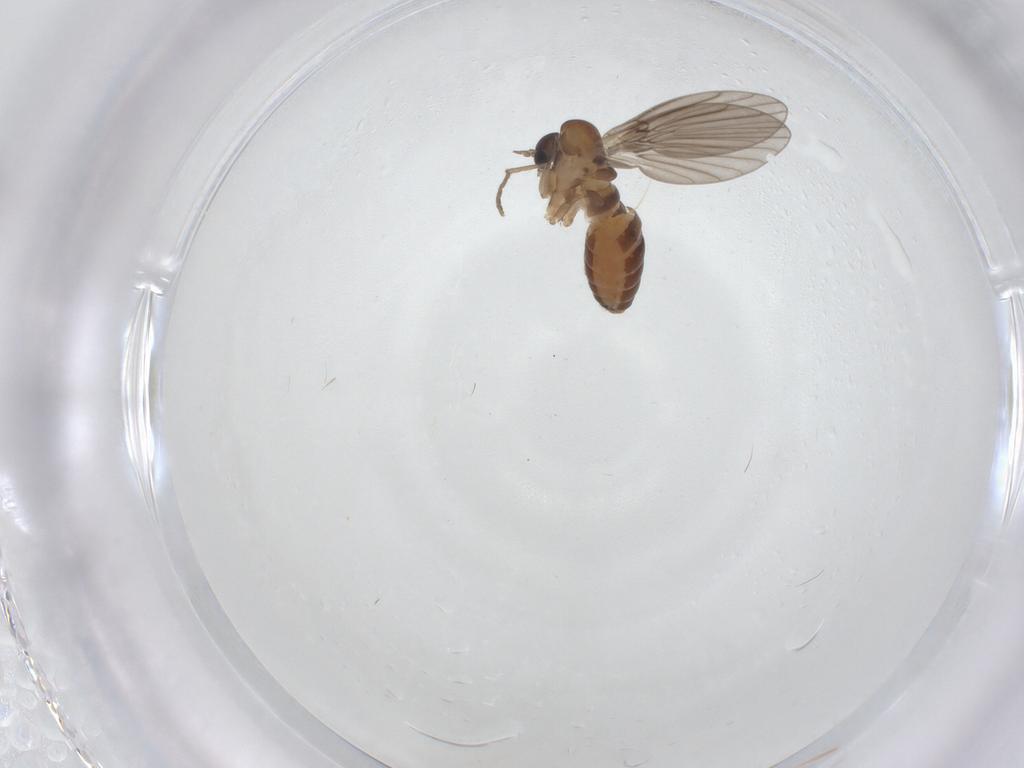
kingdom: Animalia
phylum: Arthropoda
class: Insecta
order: Diptera
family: Psychodidae
